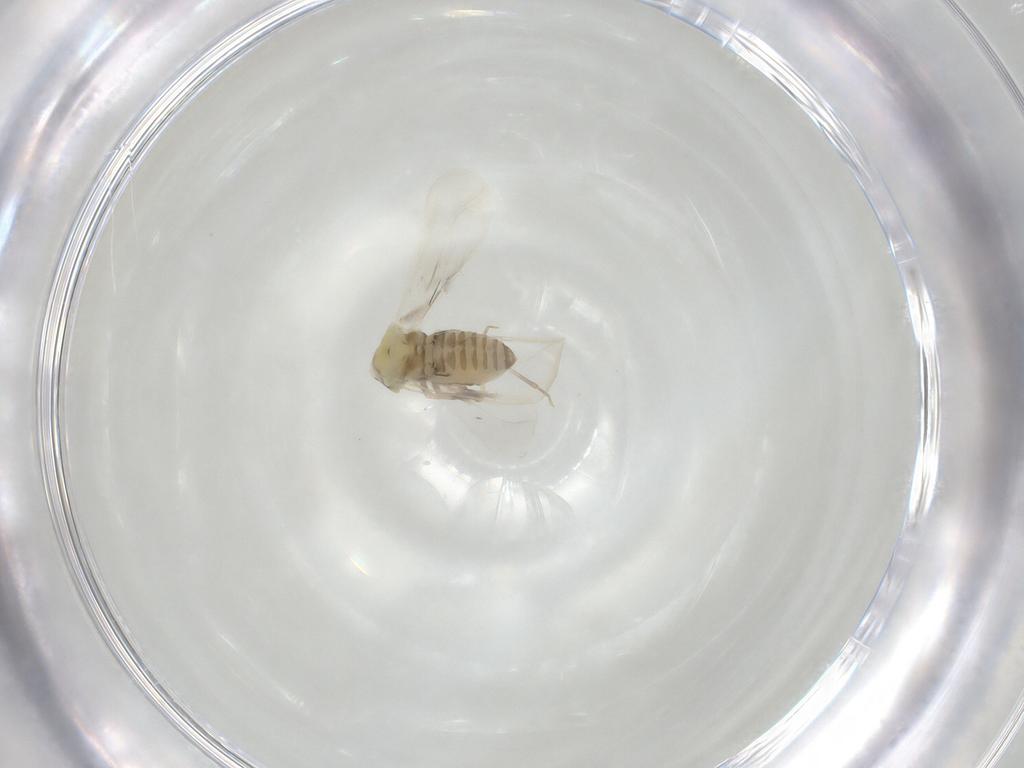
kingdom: Animalia
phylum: Arthropoda
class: Insecta
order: Hemiptera
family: Aleyrodidae
